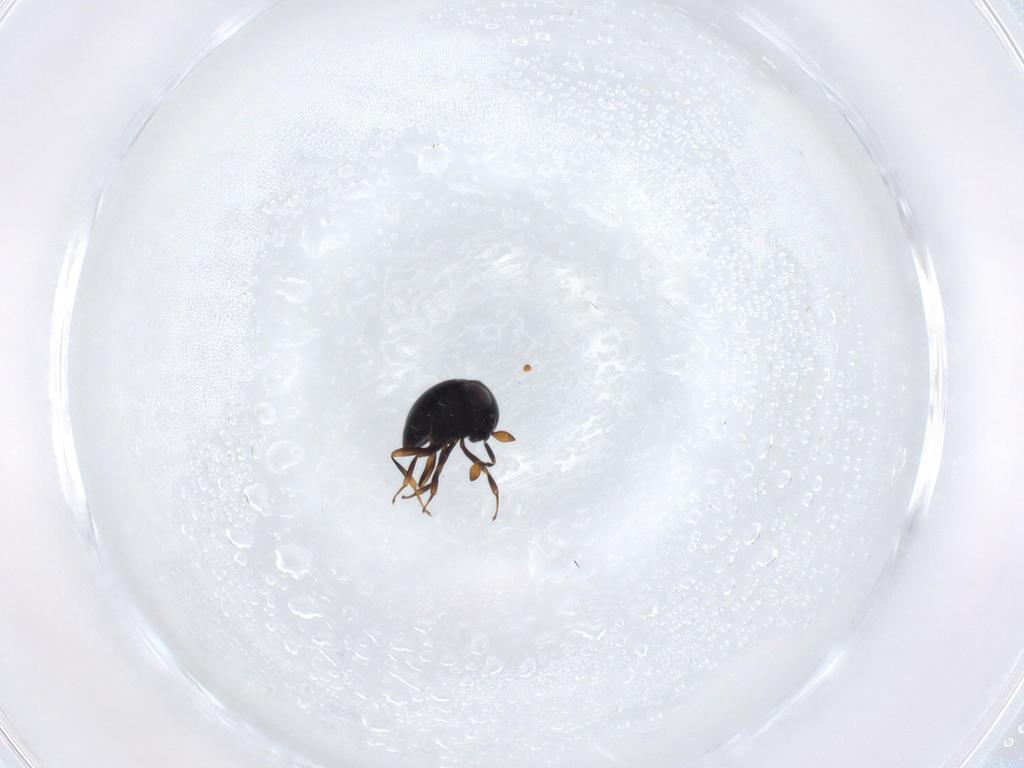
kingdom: Animalia
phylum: Arthropoda
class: Insecta
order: Hymenoptera
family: Scelionidae
